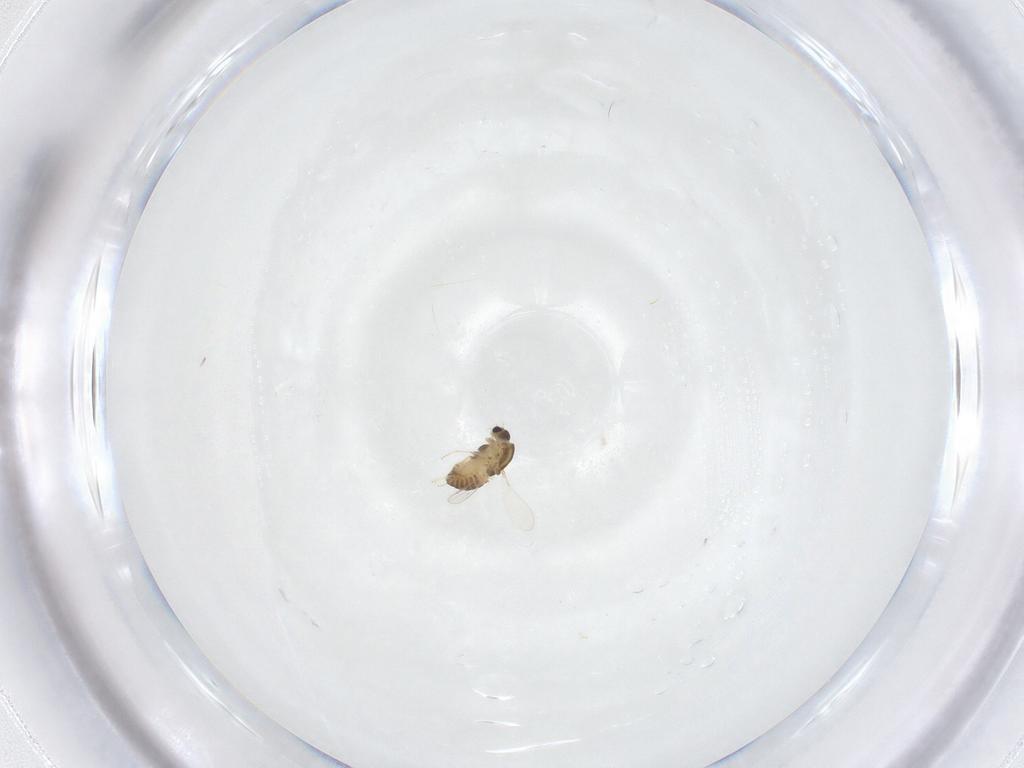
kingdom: Animalia
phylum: Arthropoda
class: Insecta
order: Diptera
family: Chironomidae
